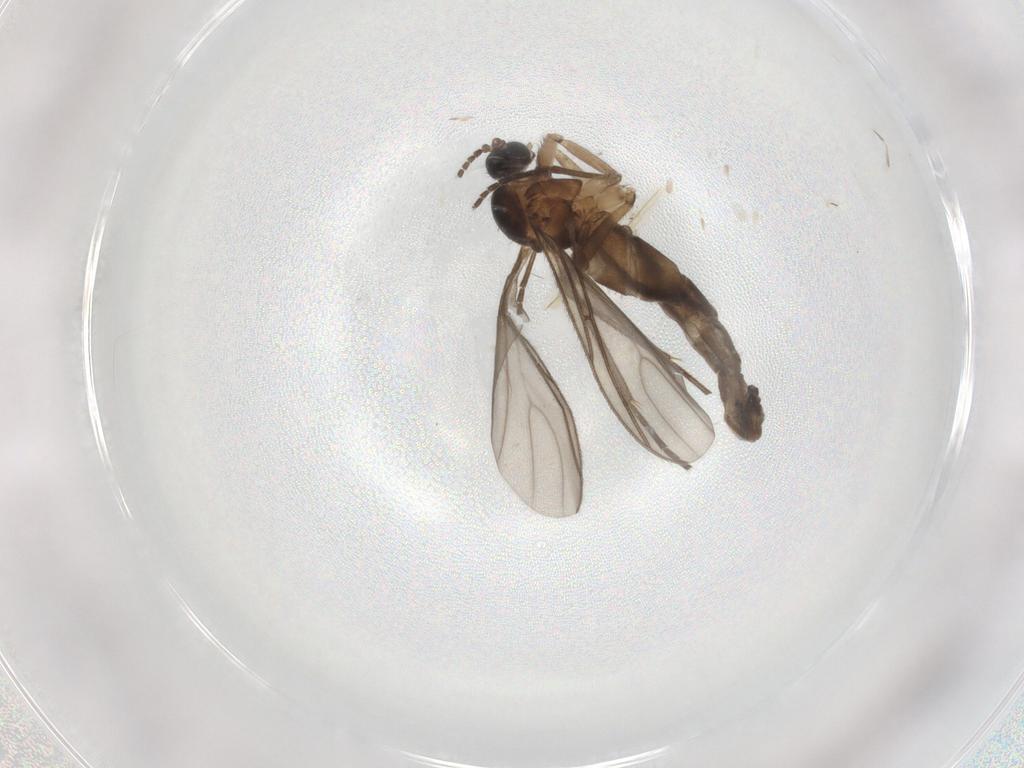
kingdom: Animalia
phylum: Arthropoda
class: Insecta
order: Diptera
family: Sciaridae
